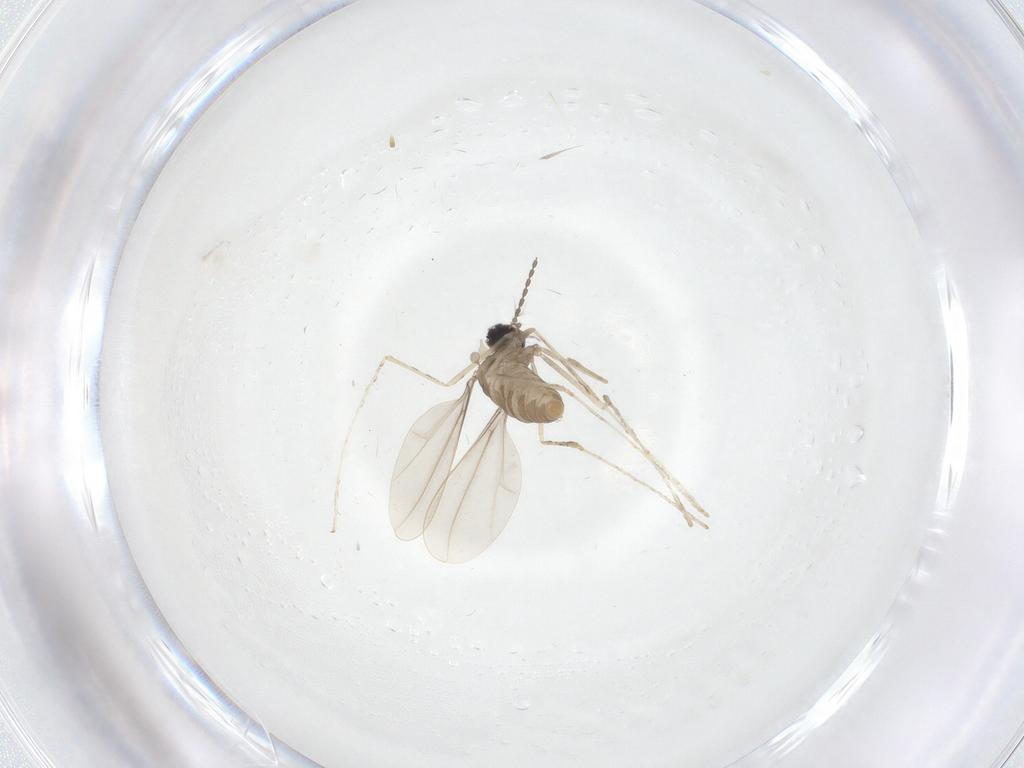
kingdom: Animalia
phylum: Arthropoda
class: Insecta
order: Diptera
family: Cecidomyiidae
